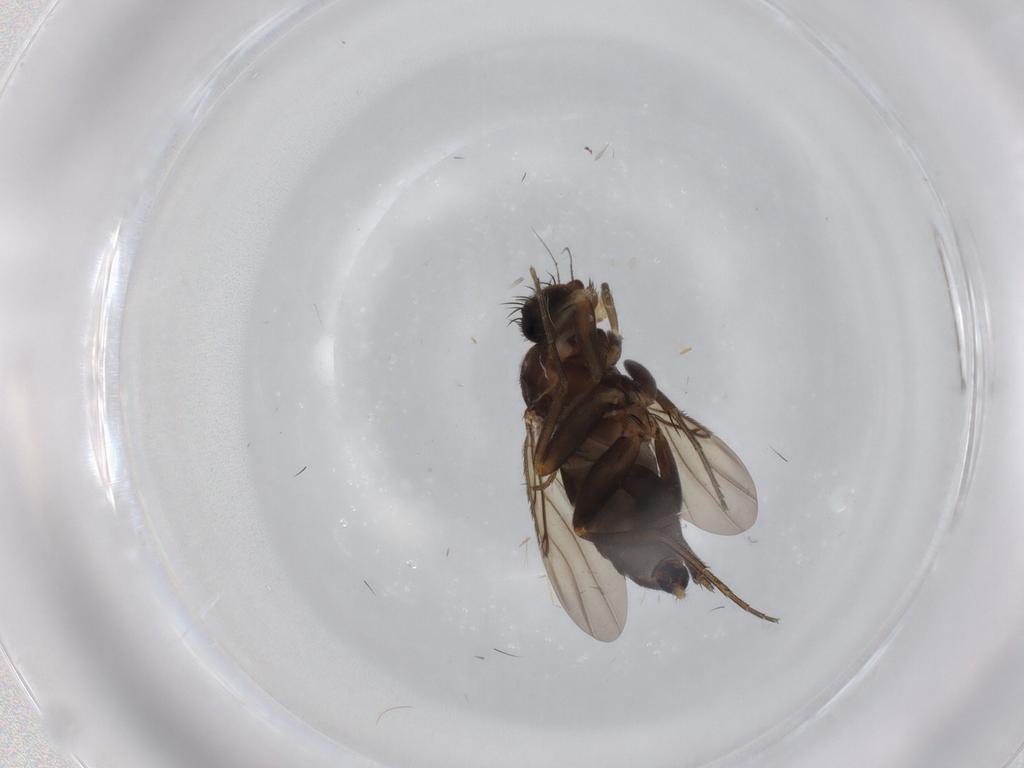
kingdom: Animalia
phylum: Arthropoda
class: Insecta
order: Diptera
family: Phoridae
